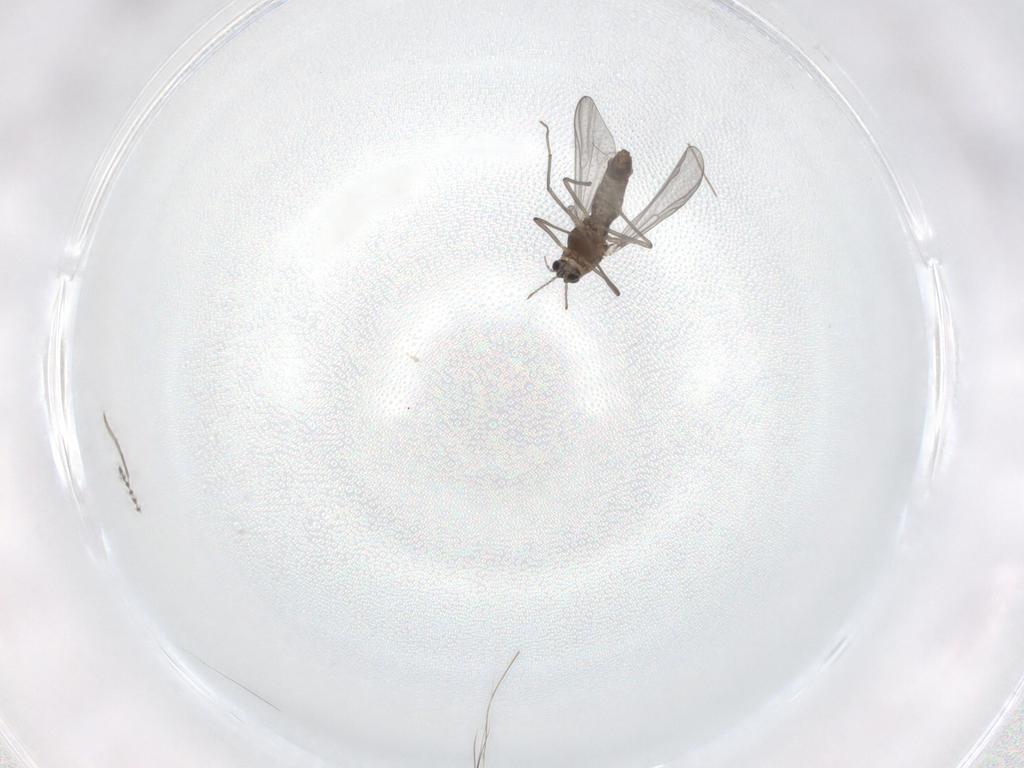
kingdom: Animalia
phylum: Arthropoda
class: Insecta
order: Diptera
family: Chironomidae
